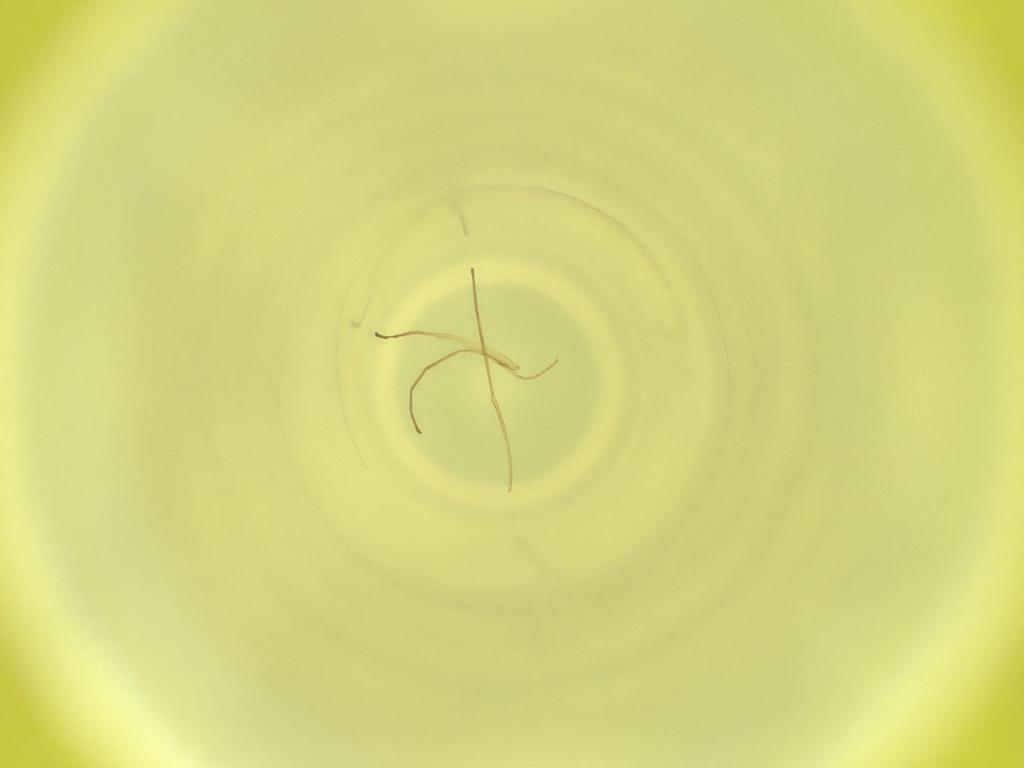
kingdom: Animalia
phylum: Arthropoda
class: Insecta
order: Diptera
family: Cecidomyiidae
